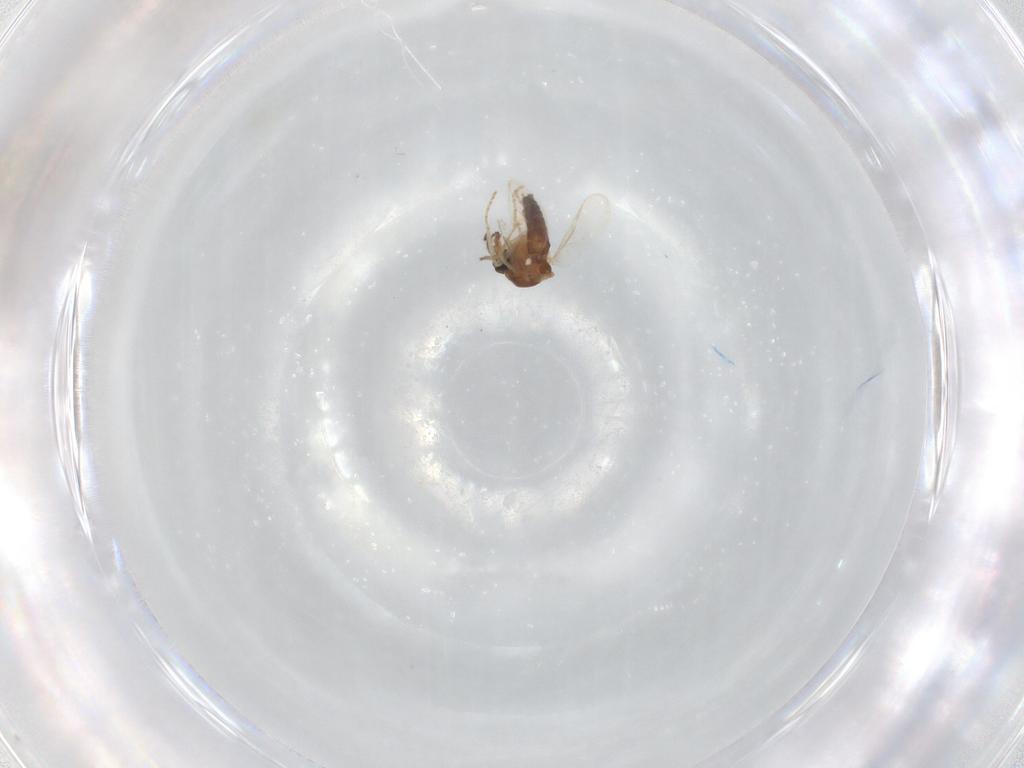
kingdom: Animalia
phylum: Arthropoda
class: Insecta
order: Diptera
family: Ceratopogonidae
